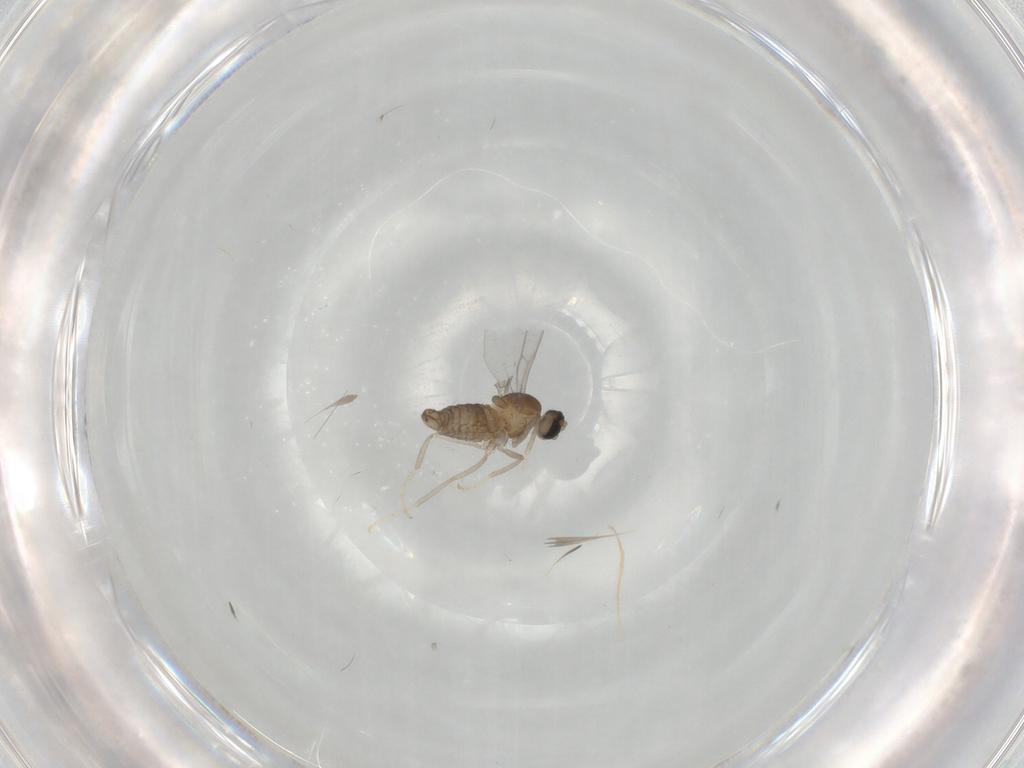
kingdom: Animalia
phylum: Arthropoda
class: Insecta
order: Diptera
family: Cecidomyiidae
